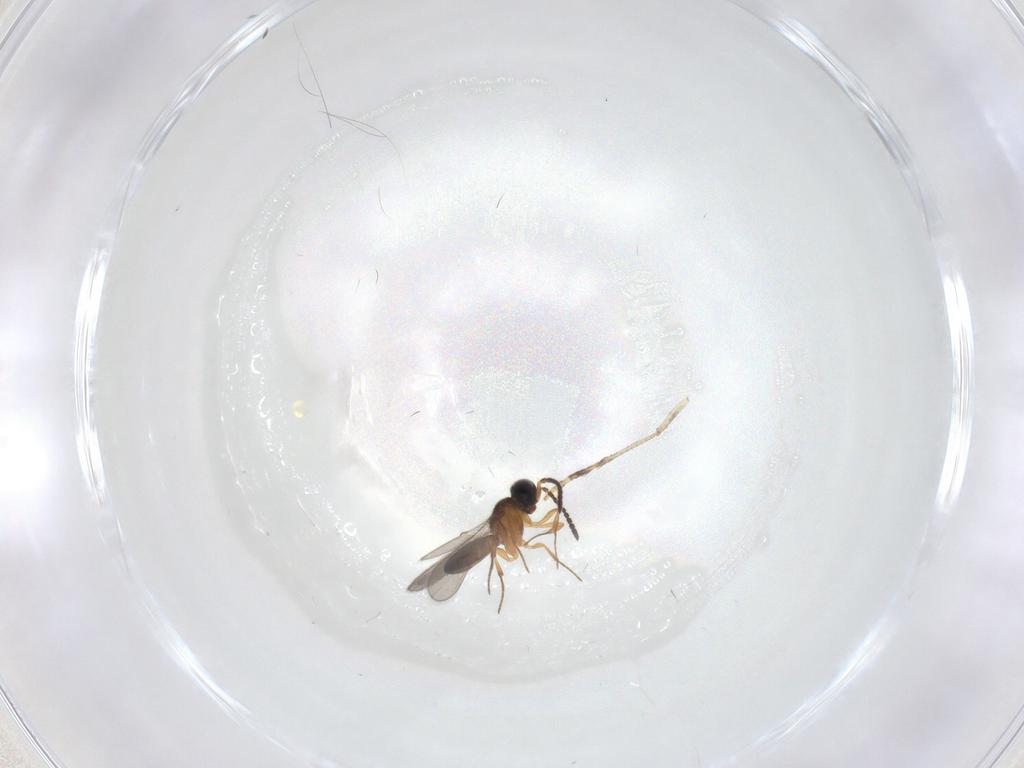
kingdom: Animalia
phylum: Arthropoda
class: Insecta
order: Hymenoptera
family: Scelionidae
